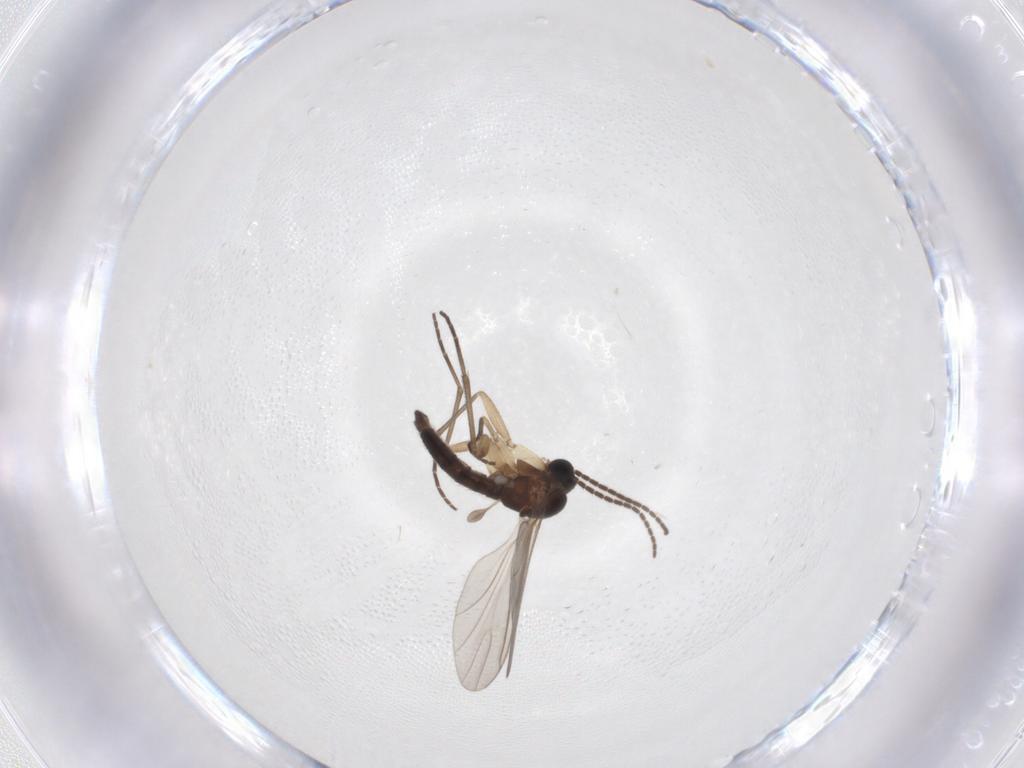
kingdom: Animalia
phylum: Arthropoda
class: Insecta
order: Diptera
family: Sciaridae
